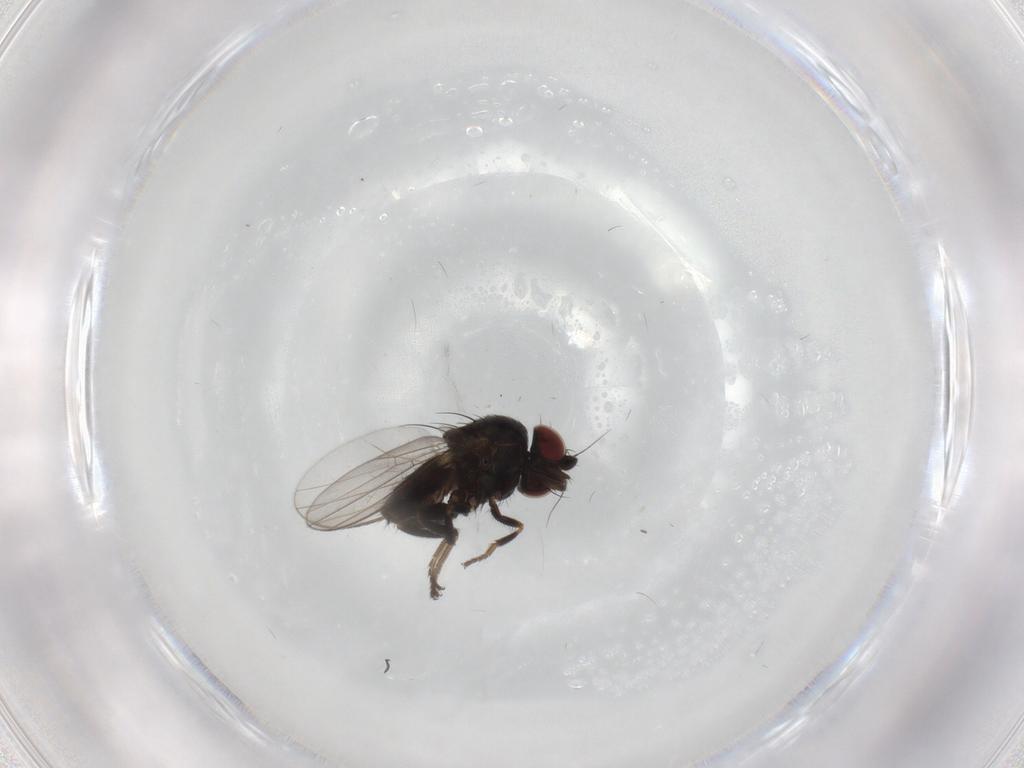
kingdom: Animalia
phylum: Arthropoda
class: Insecta
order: Diptera
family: Milichiidae
